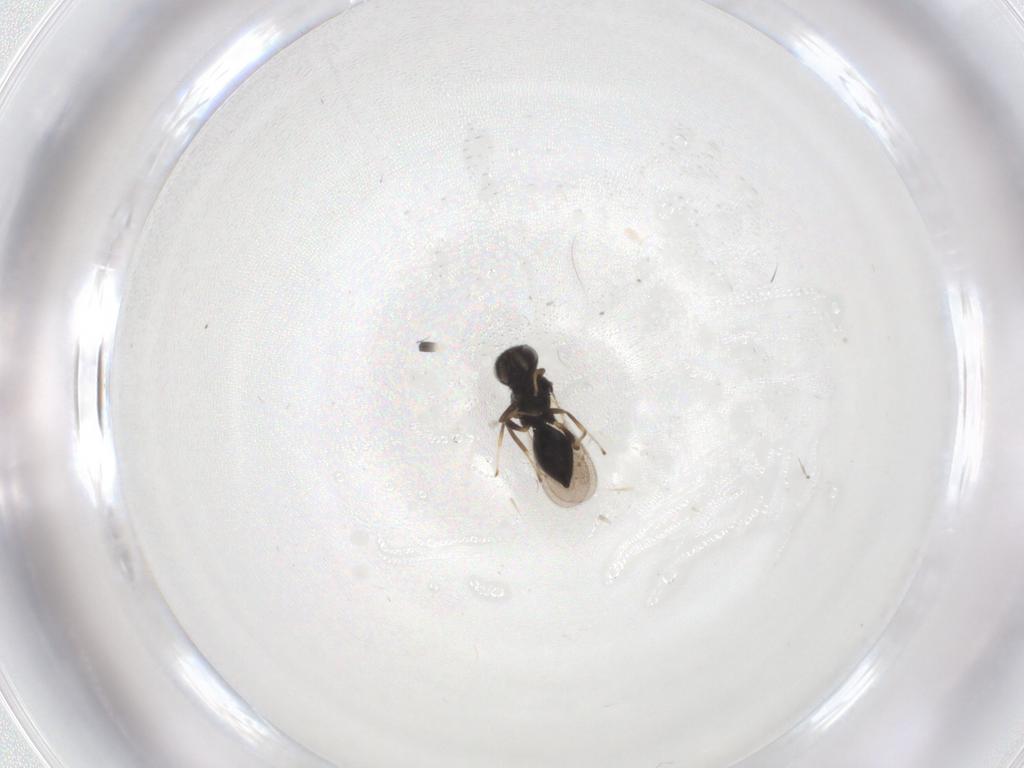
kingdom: Animalia
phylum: Arthropoda
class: Insecta
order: Hymenoptera
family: Pteromalidae
